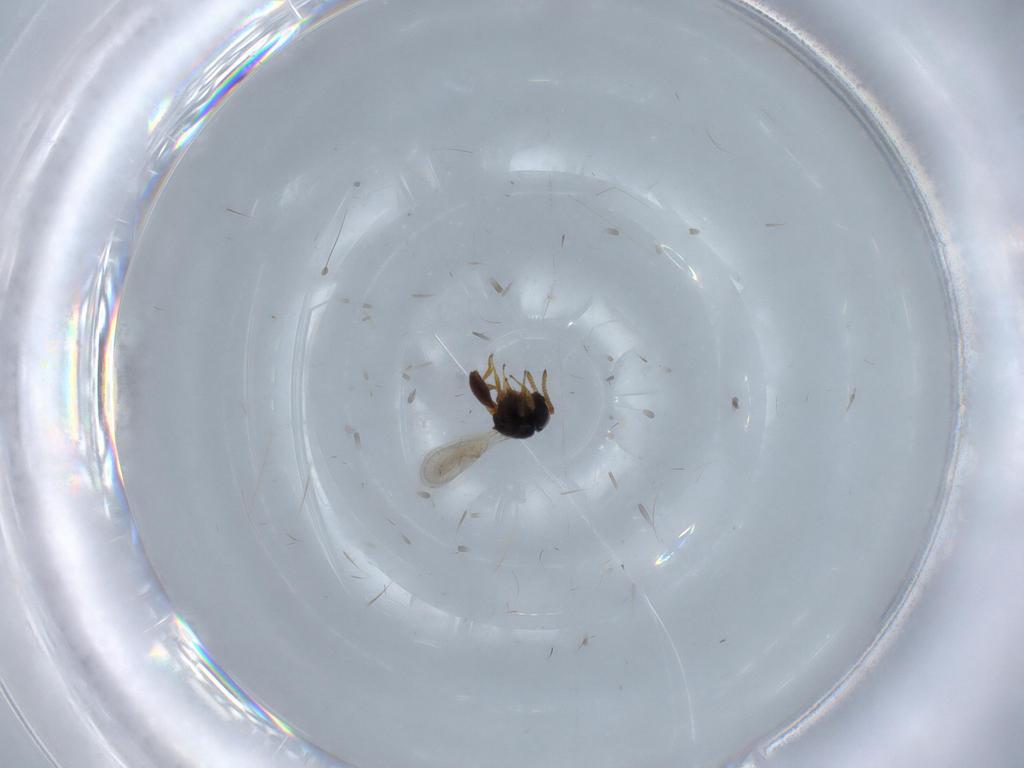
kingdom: Animalia
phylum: Arthropoda
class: Insecta
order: Hymenoptera
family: Scelionidae
